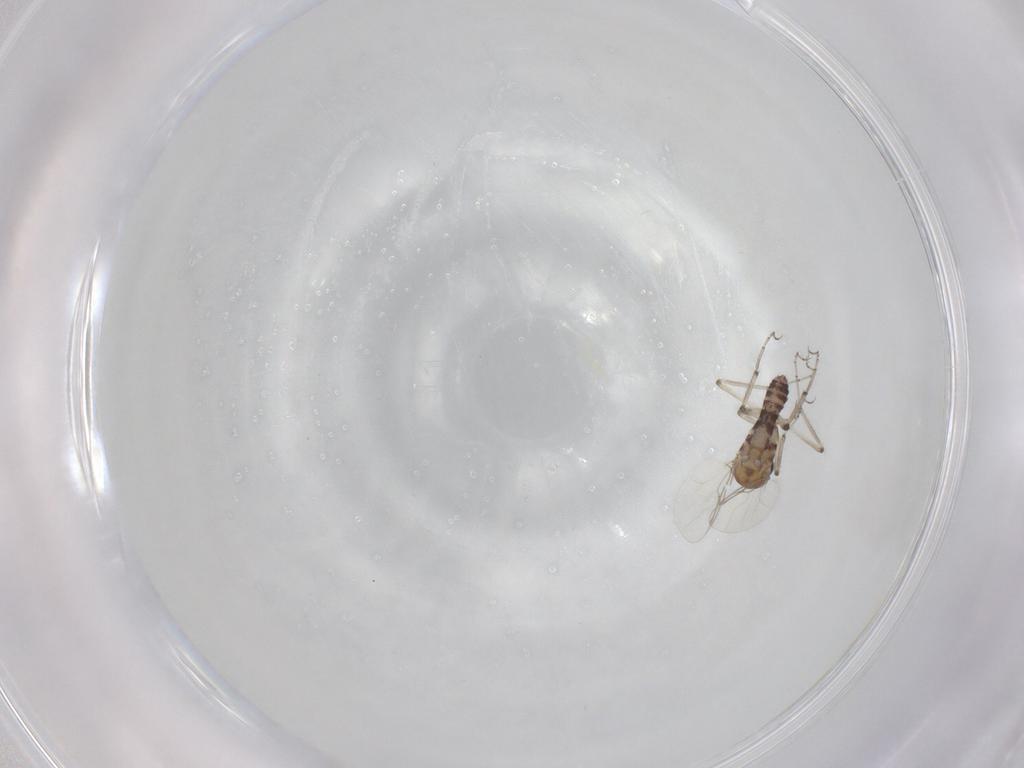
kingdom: Animalia
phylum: Arthropoda
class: Insecta
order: Diptera
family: Ceratopogonidae
